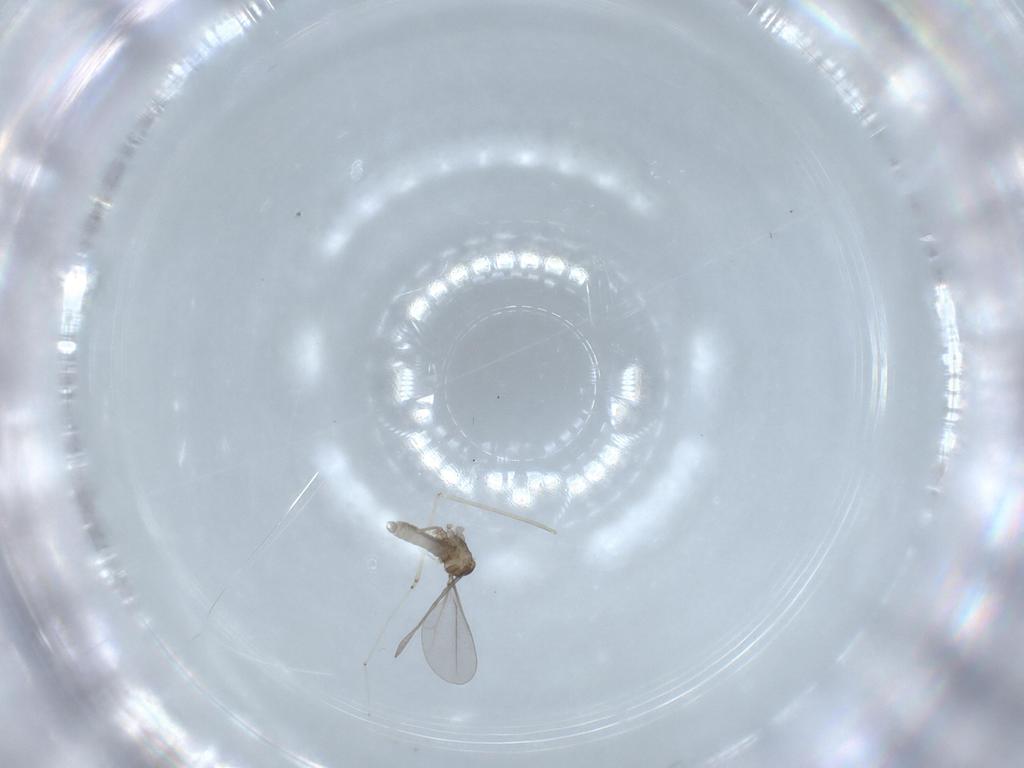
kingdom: Animalia
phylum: Arthropoda
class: Insecta
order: Diptera
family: Cecidomyiidae
